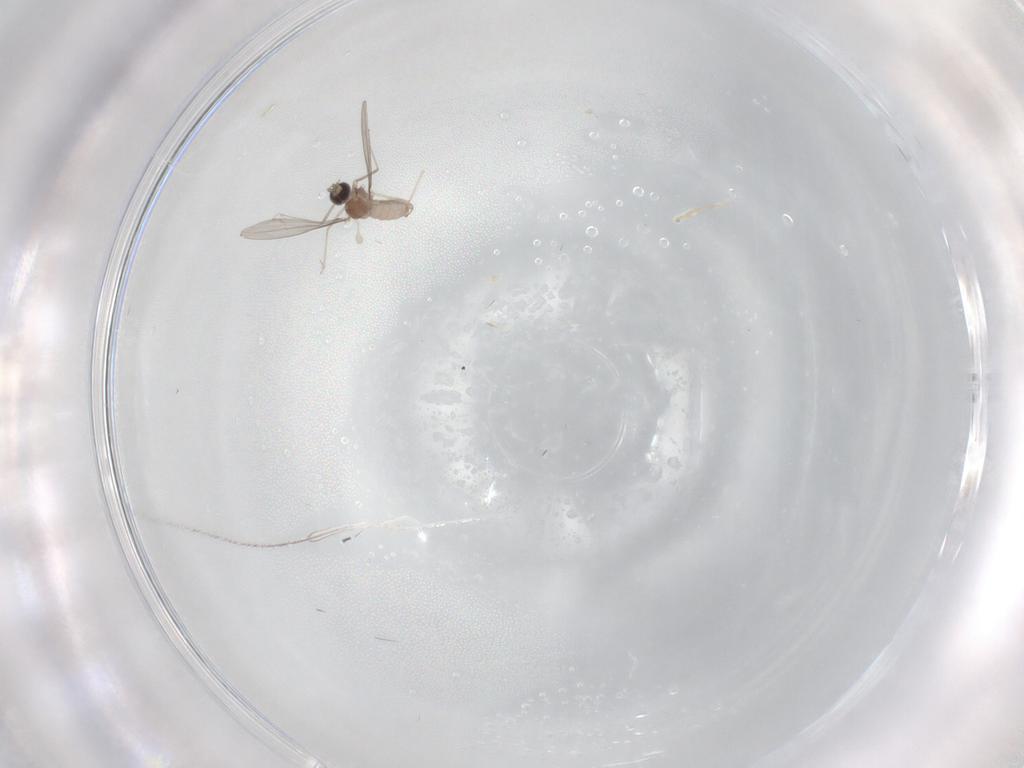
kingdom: Animalia
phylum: Arthropoda
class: Insecta
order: Diptera
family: Cecidomyiidae
